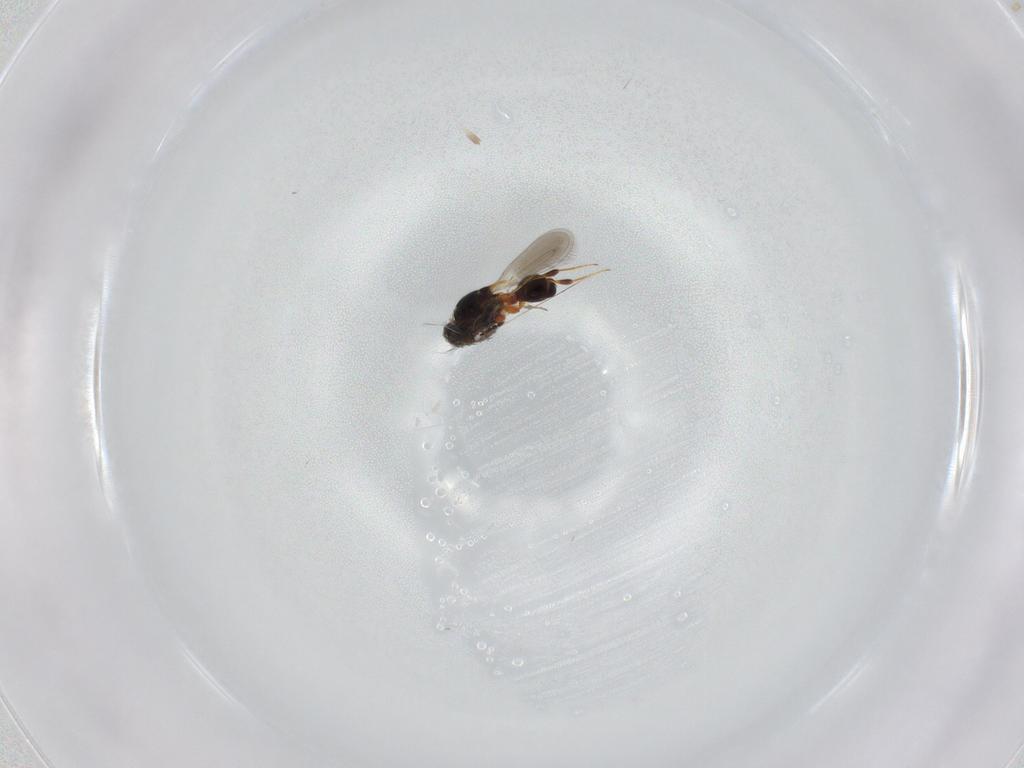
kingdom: Animalia
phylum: Arthropoda
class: Insecta
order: Hymenoptera
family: Platygastridae
